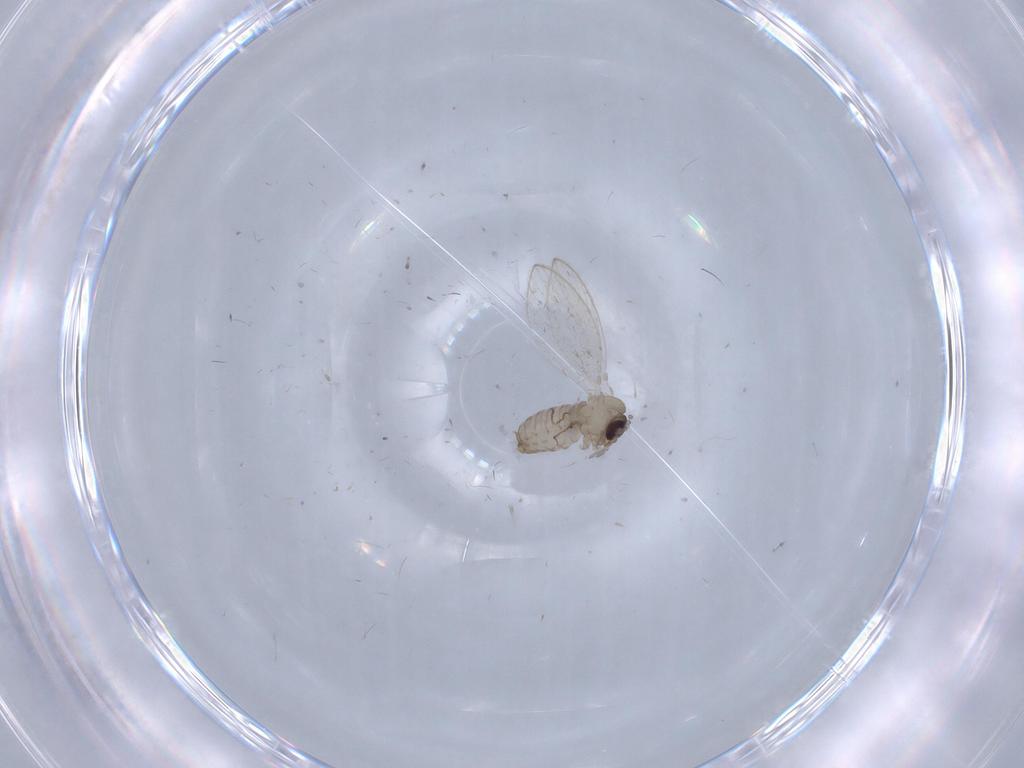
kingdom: Animalia
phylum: Arthropoda
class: Insecta
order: Diptera
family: Psychodidae
